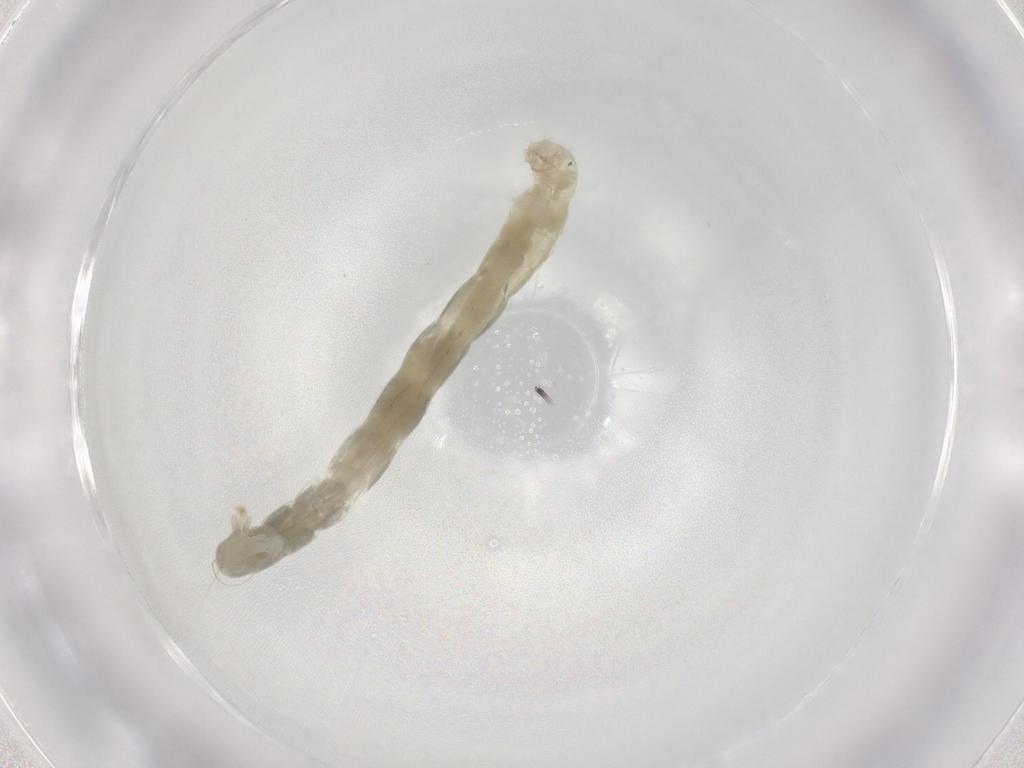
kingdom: Animalia
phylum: Arthropoda
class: Insecta
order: Diptera
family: Chironomidae
